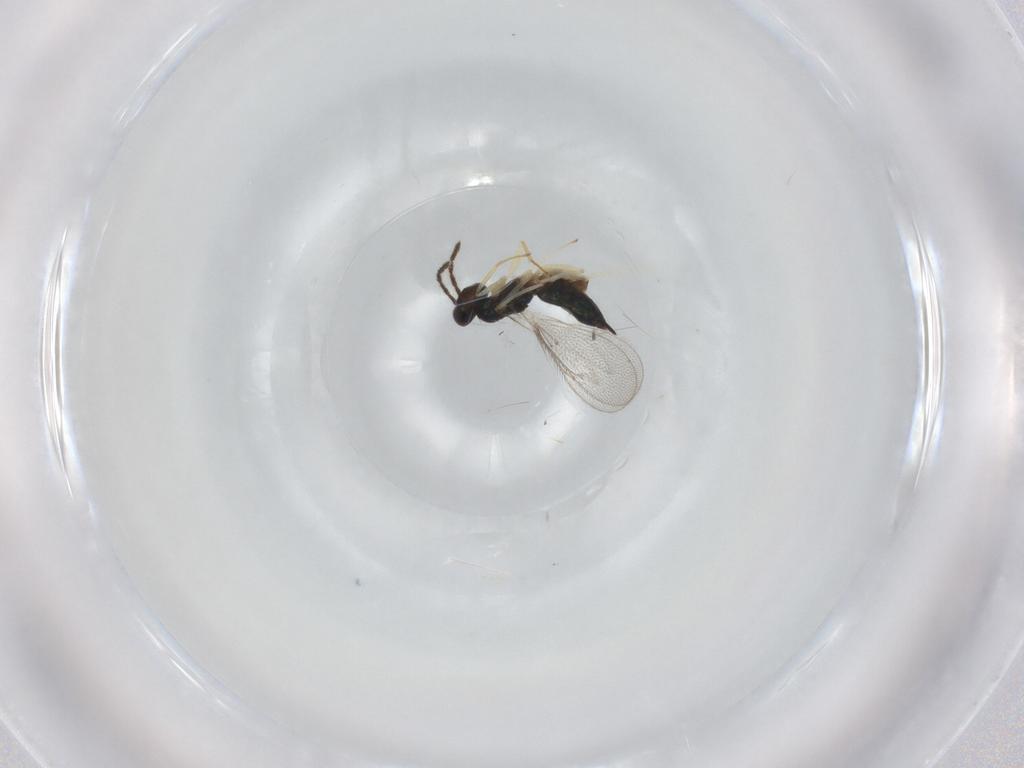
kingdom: Animalia
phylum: Arthropoda
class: Insecta
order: Hymenoptera
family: Eulophidae
